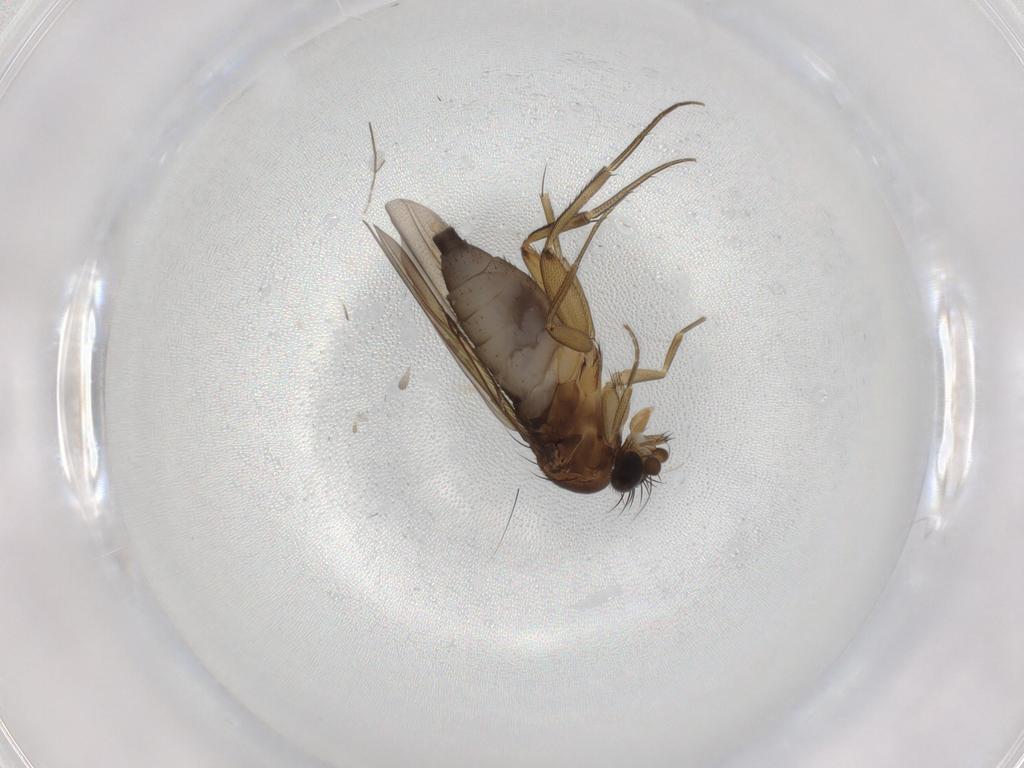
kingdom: Animalia
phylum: Arthropoda
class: Insecta
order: Diptera
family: Phoridae
